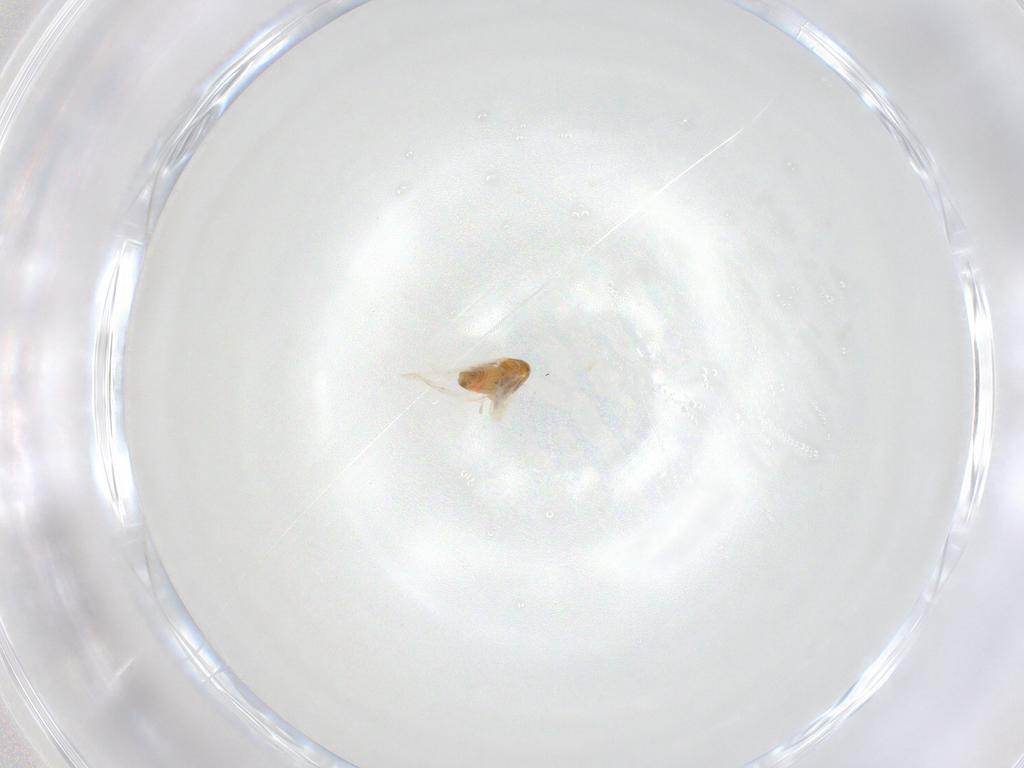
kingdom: Animalia
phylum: Arthropoda
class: Insecta
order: Hemiptera
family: Aleyrodidae
